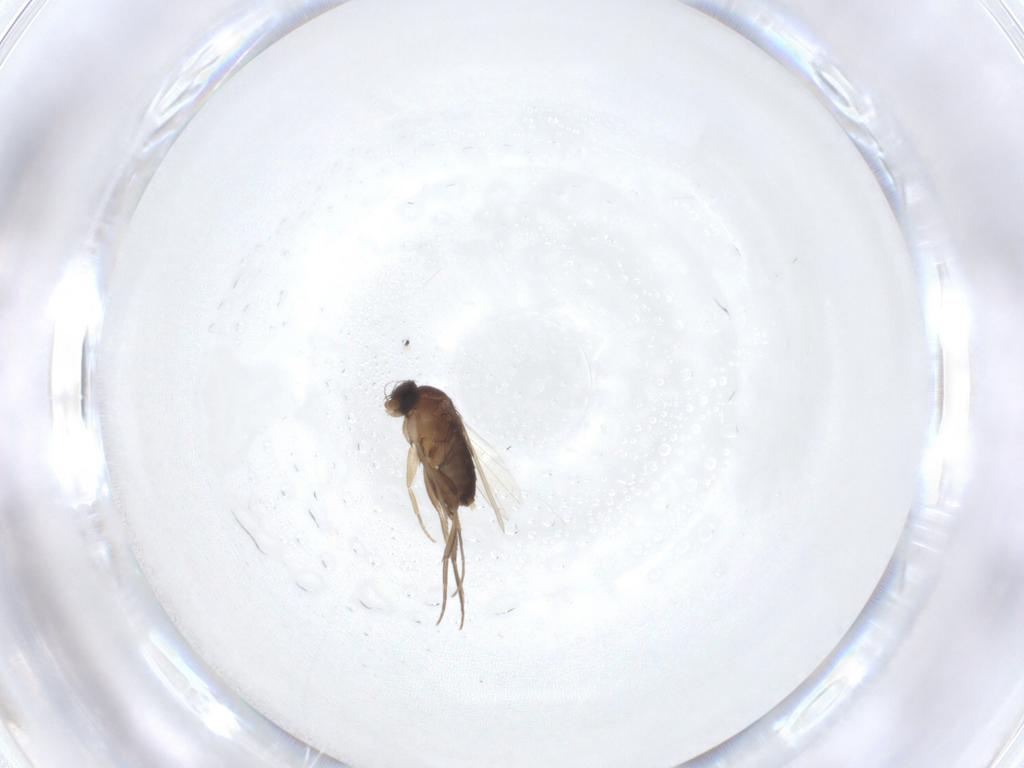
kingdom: Animalia
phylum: Arthropoda
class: Insecta
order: Diptera
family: Phoridae
